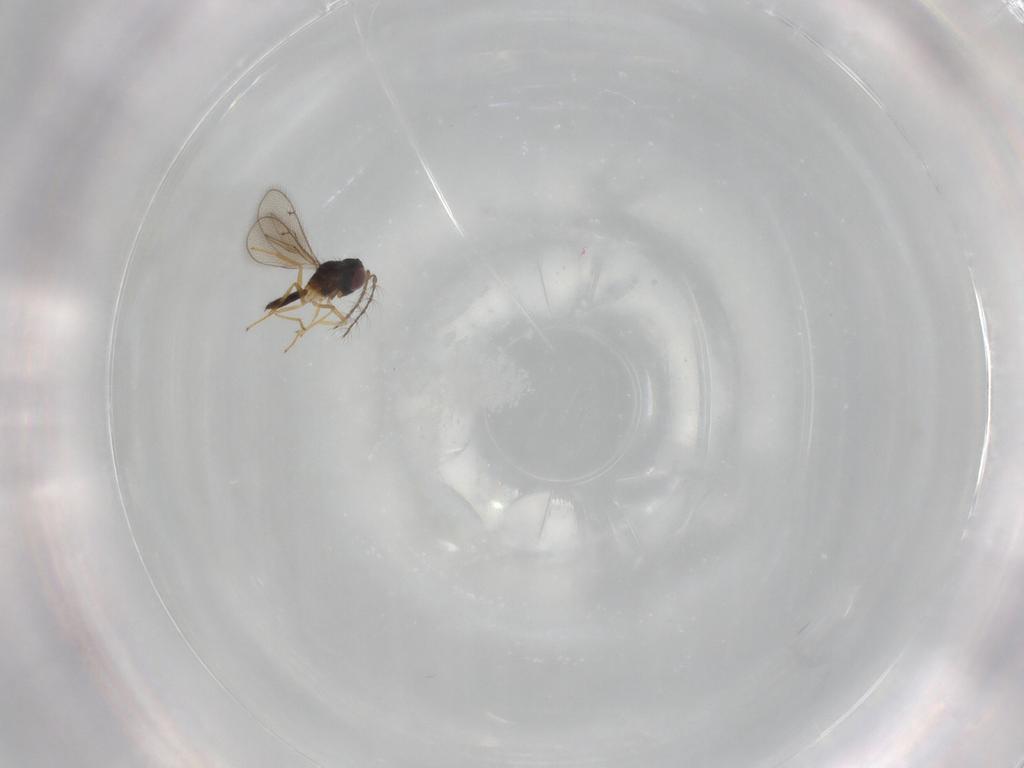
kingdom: Animalia
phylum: Arthropoda
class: Insecta
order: Hymenoptera
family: Eulophidae
